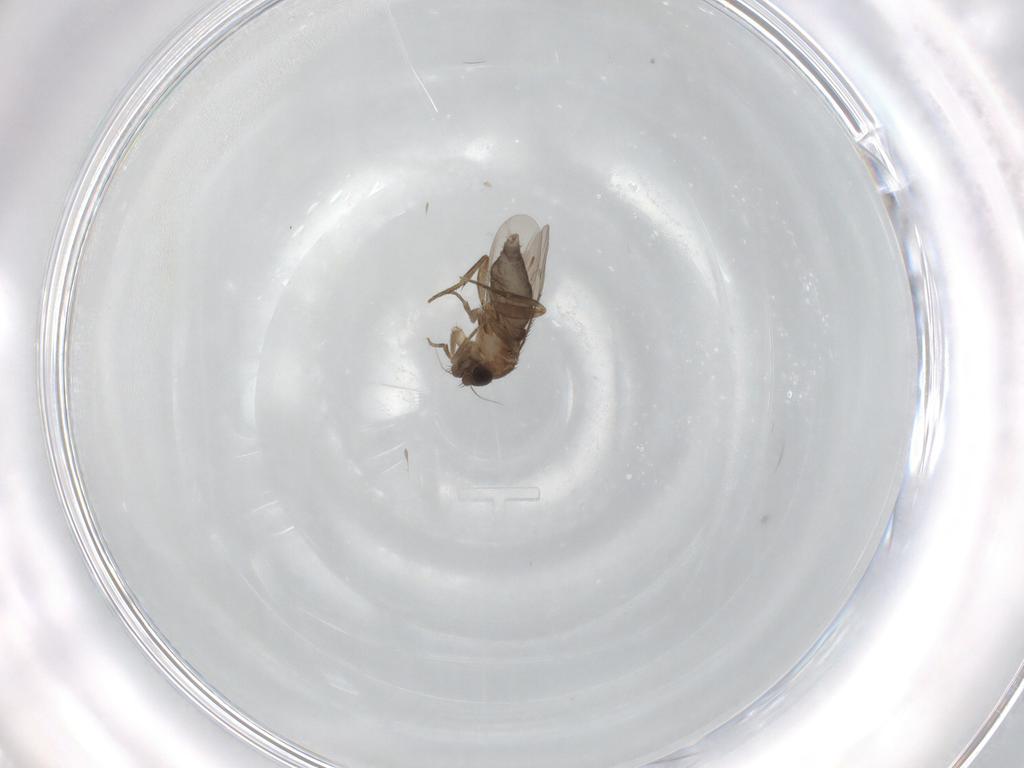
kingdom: Animalia
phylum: Arthropoda
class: Insecta
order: Diptera
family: Phoridae
